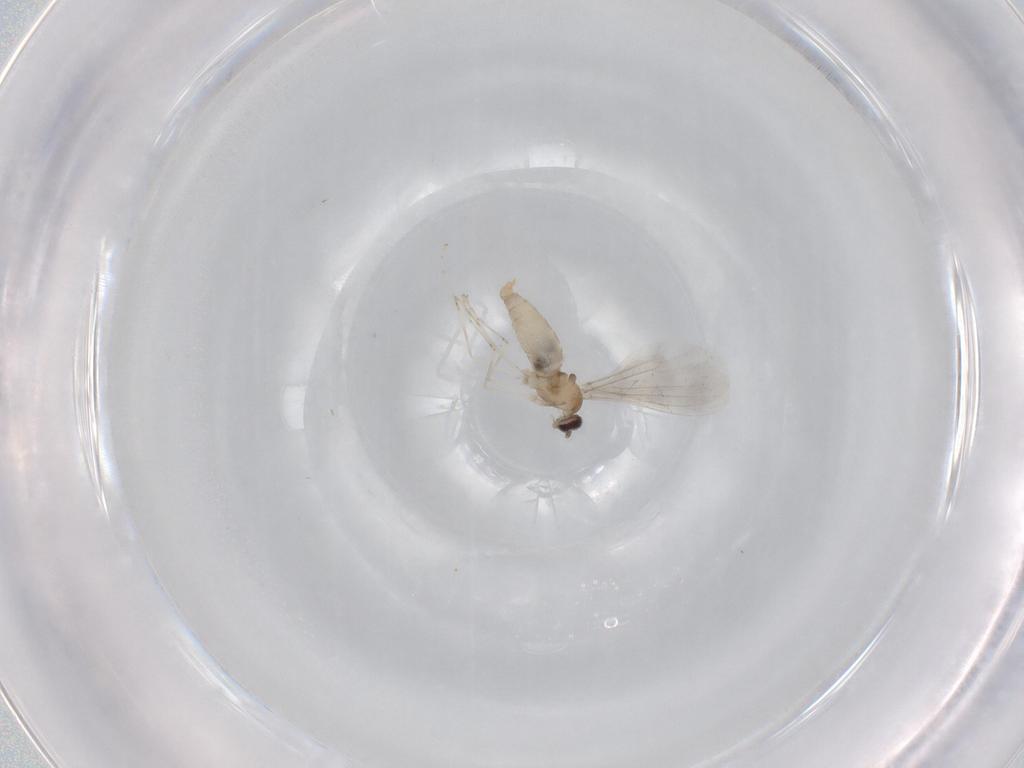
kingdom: Animalia
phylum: Arthropoda
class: Insecta
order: Diptera
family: Cecidomyiidae
